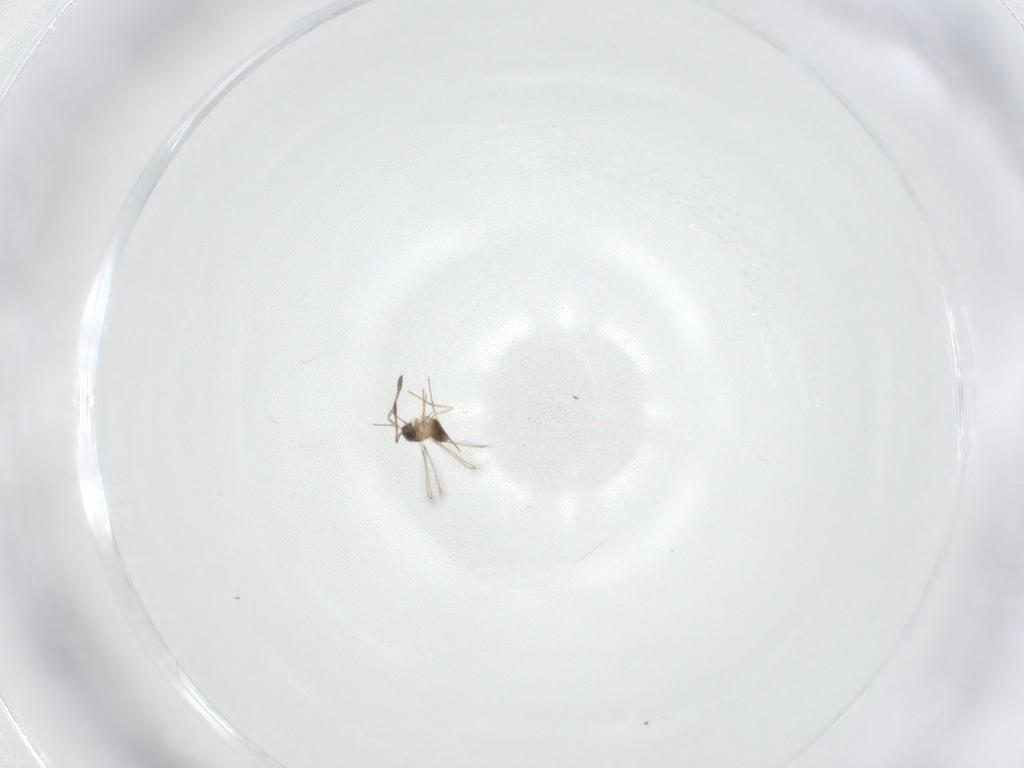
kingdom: Animalia
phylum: Arthropoda
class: Insecta
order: Hymenoptera
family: Mymaridae
